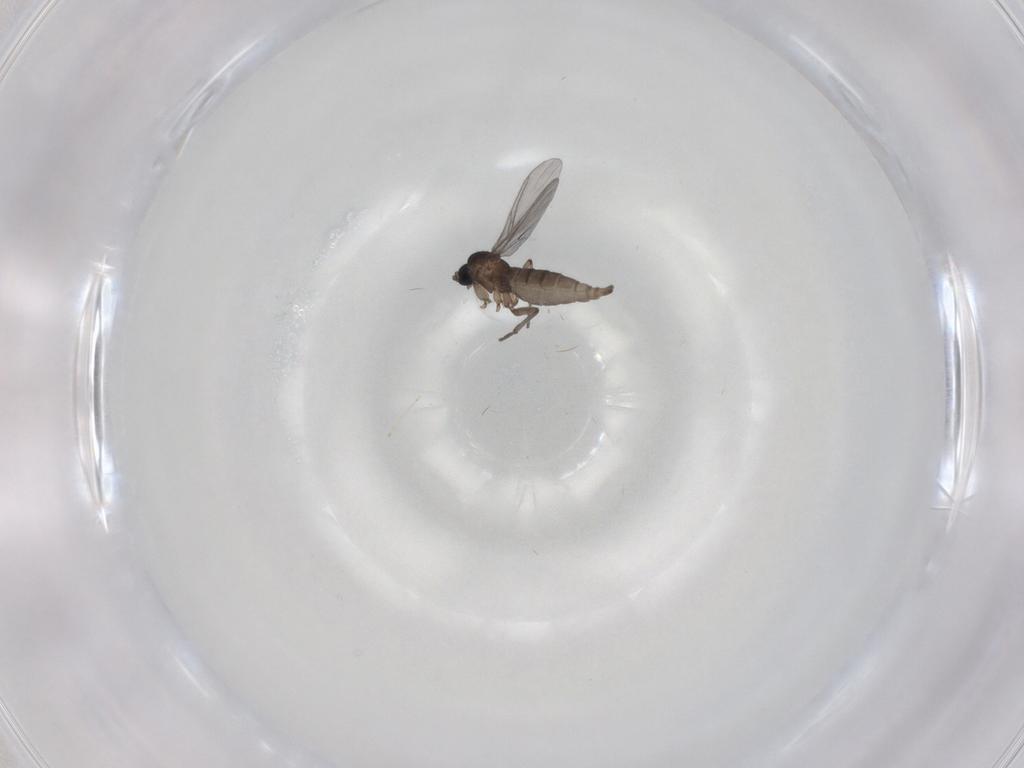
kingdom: Animalia
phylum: Arthropoda
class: Insecta
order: Diptera
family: Sciaridae
